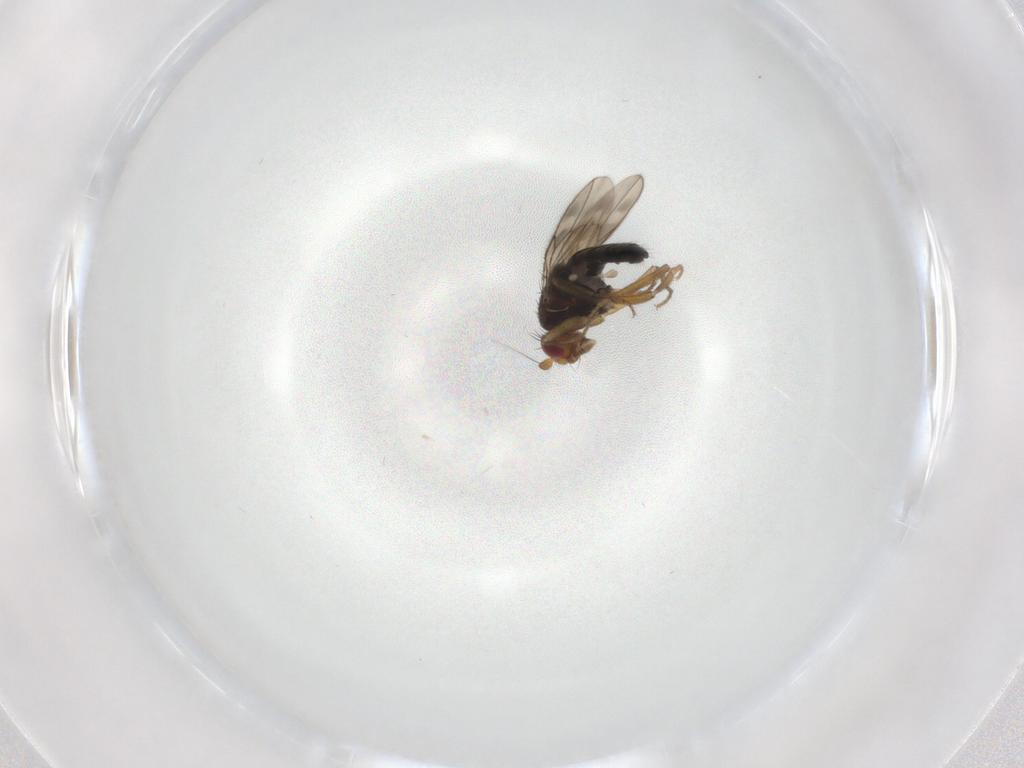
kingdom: Animalia
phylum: Arthropoda
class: Insecta
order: Diptera
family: Sphaeroceridae
